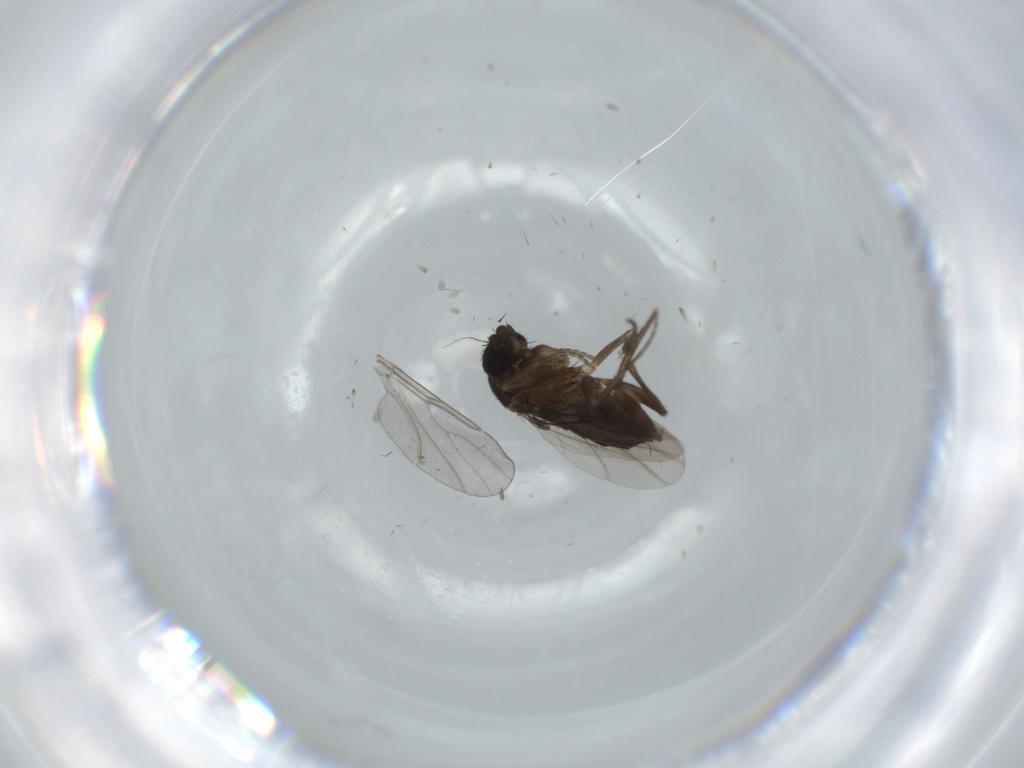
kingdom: Animalia
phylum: Arthropoda
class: Insecta
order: Diptera
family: Phoridae
